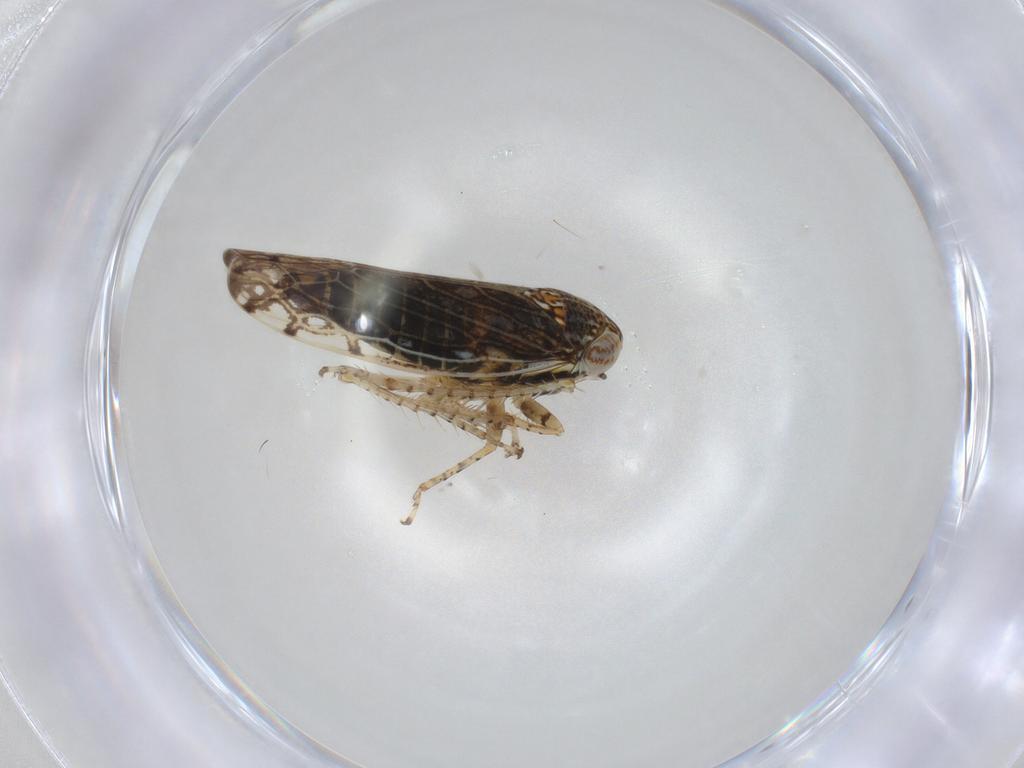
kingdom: Animalia
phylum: Arthropoda
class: Insecta
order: Hemiptera
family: Cicadellidae
